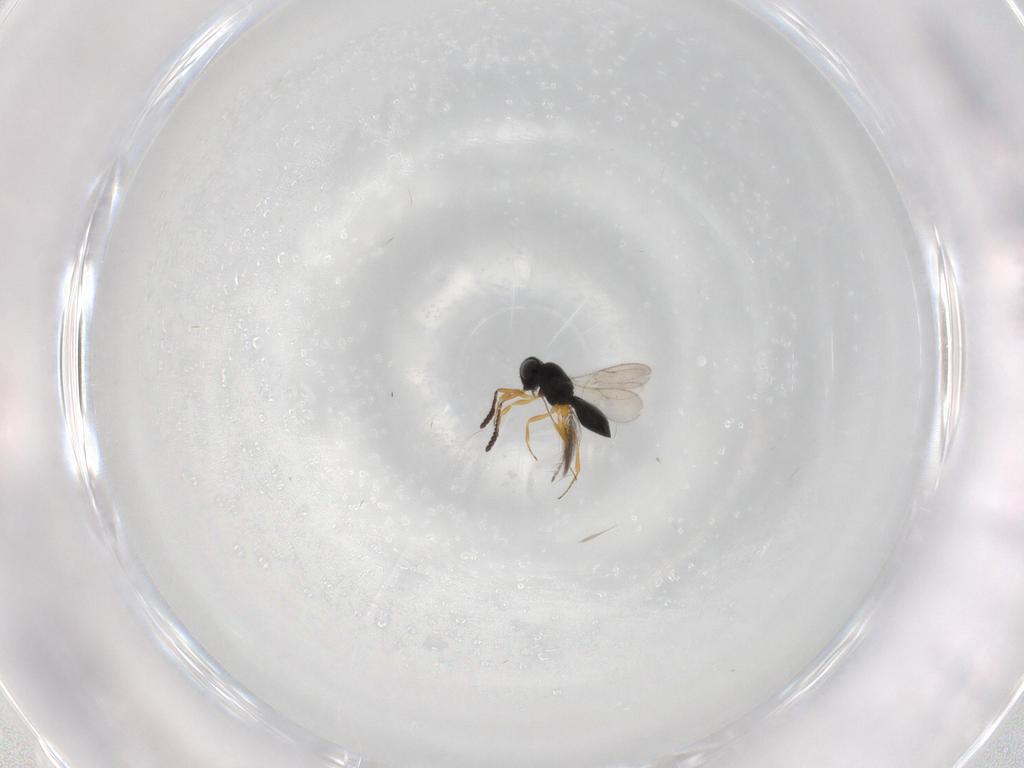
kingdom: Animalia
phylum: Arthropoda
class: Insecta
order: Hymenoptera
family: Scelionidae
